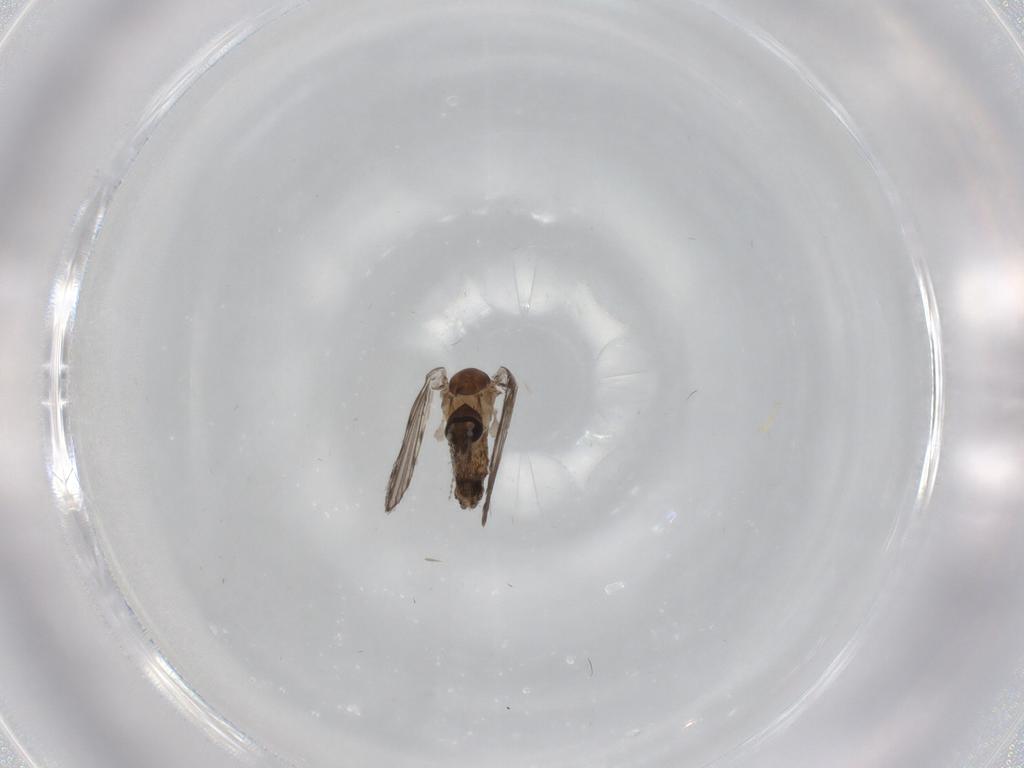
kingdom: Animalia
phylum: Arthropoda
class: Insecta
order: Diptera
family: Psychodidae
